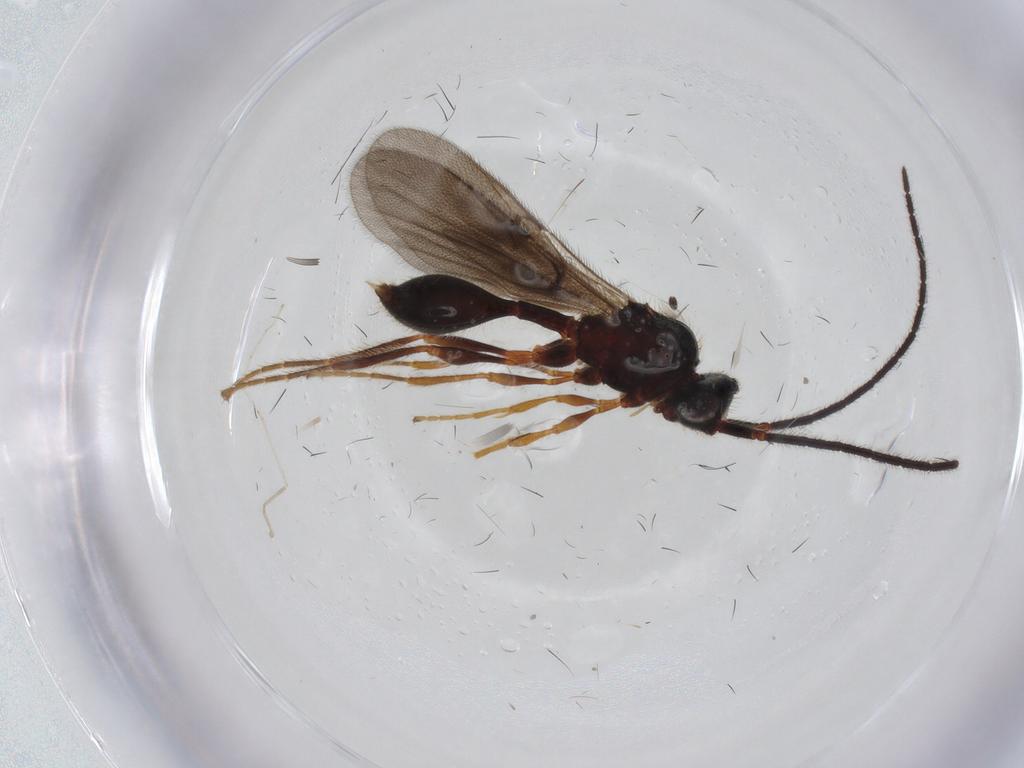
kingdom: Animalia
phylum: Arthropoda
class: Insecta
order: Hymenoptera
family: Diapriidae
